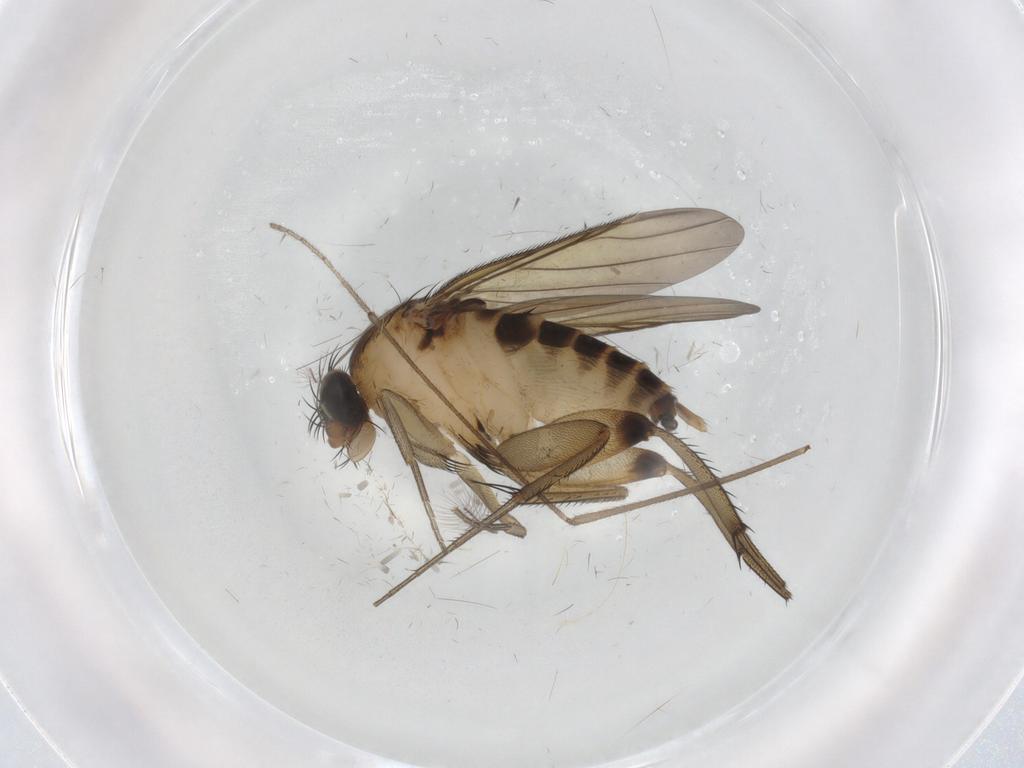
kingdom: Animalia
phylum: Arthropoda
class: Insecta
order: Diptera
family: Limoniidae
